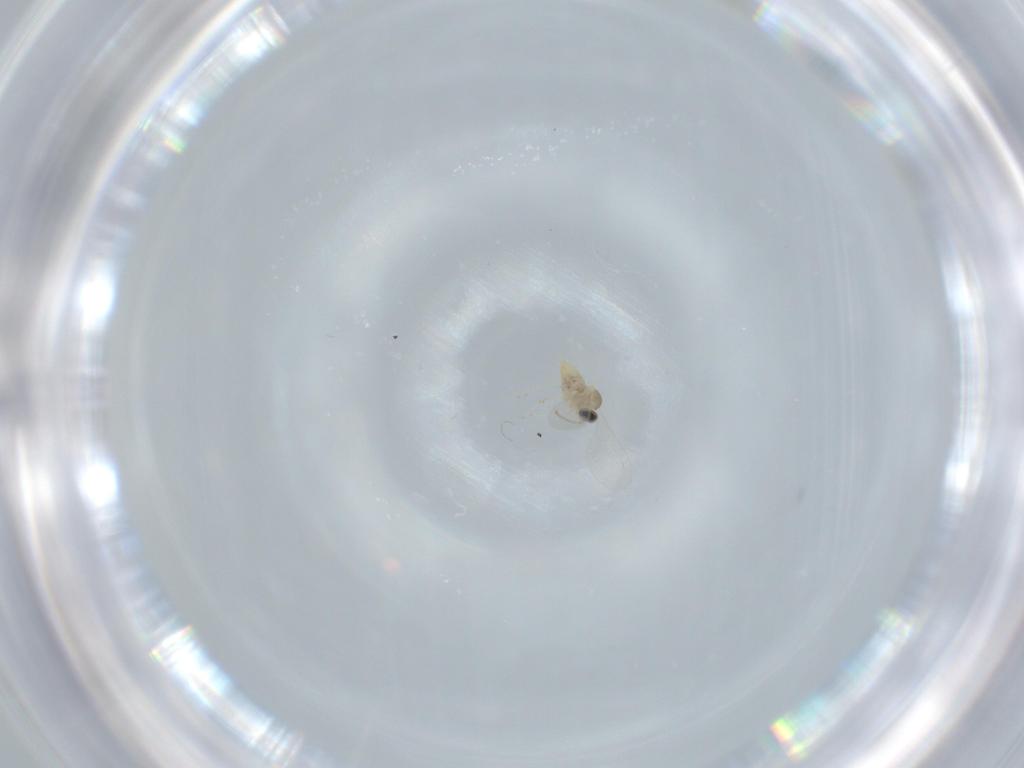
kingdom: Animalia
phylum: Arthropoda
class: Insecta
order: Diptera
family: Cecidomyiidae
